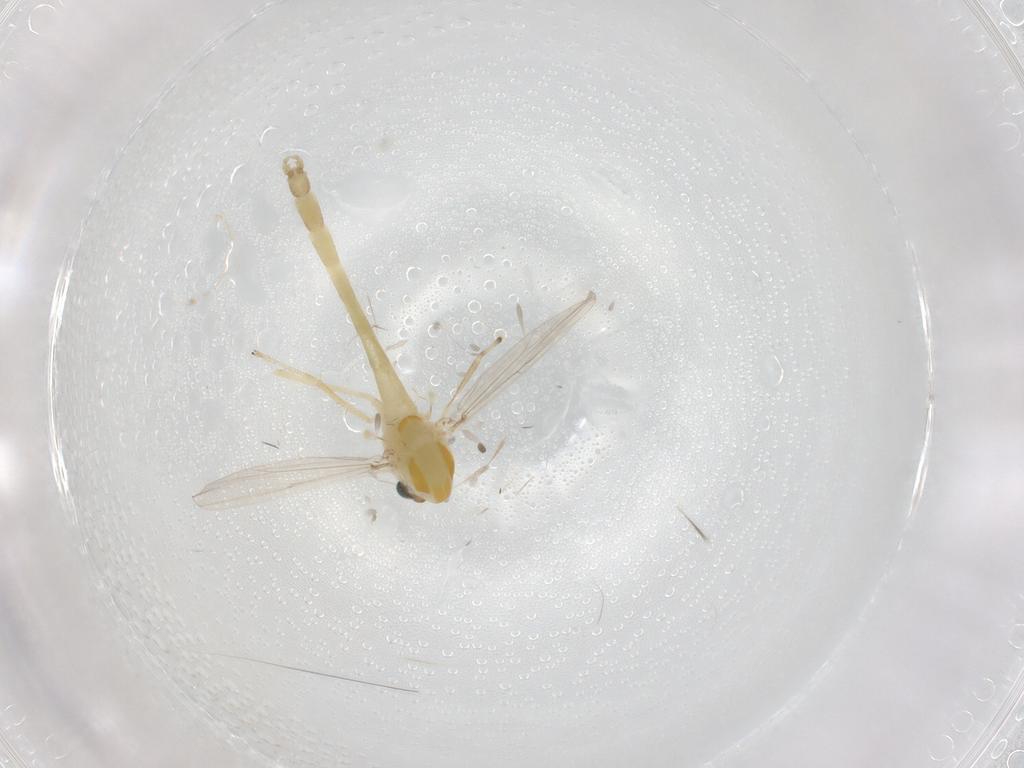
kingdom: Animalia
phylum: Arthropoda
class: Insecta
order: Diptera
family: Chironomidae
